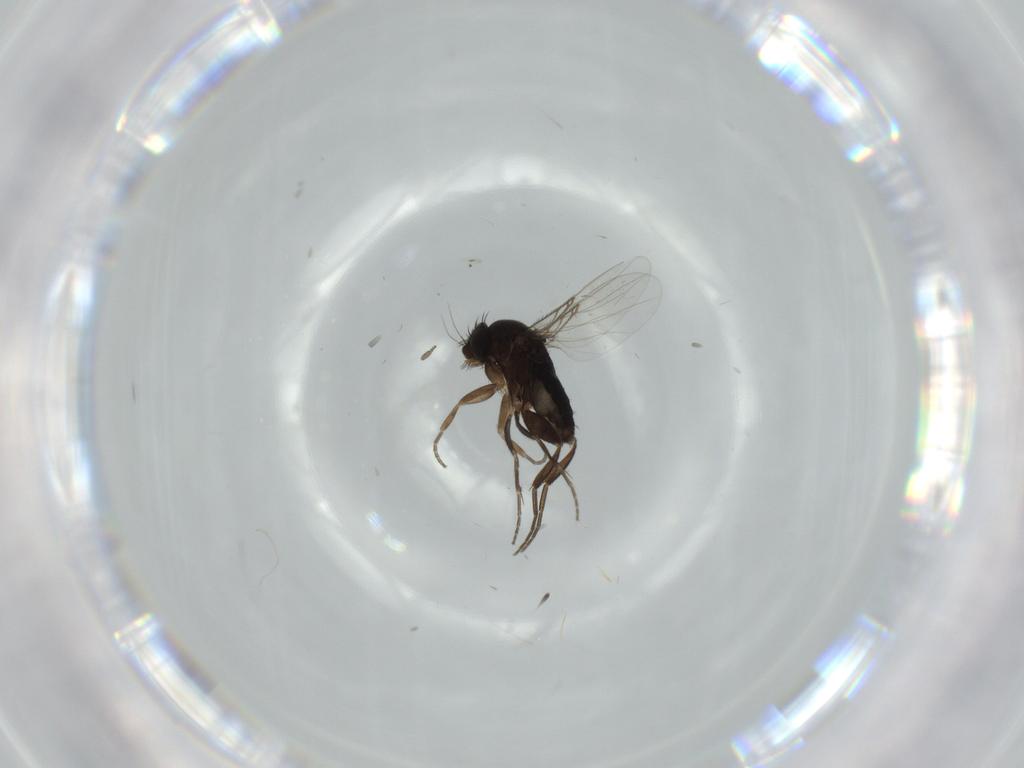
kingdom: Animalia
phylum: Arthropoda
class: Insecta
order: Diptera
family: Phoridae
